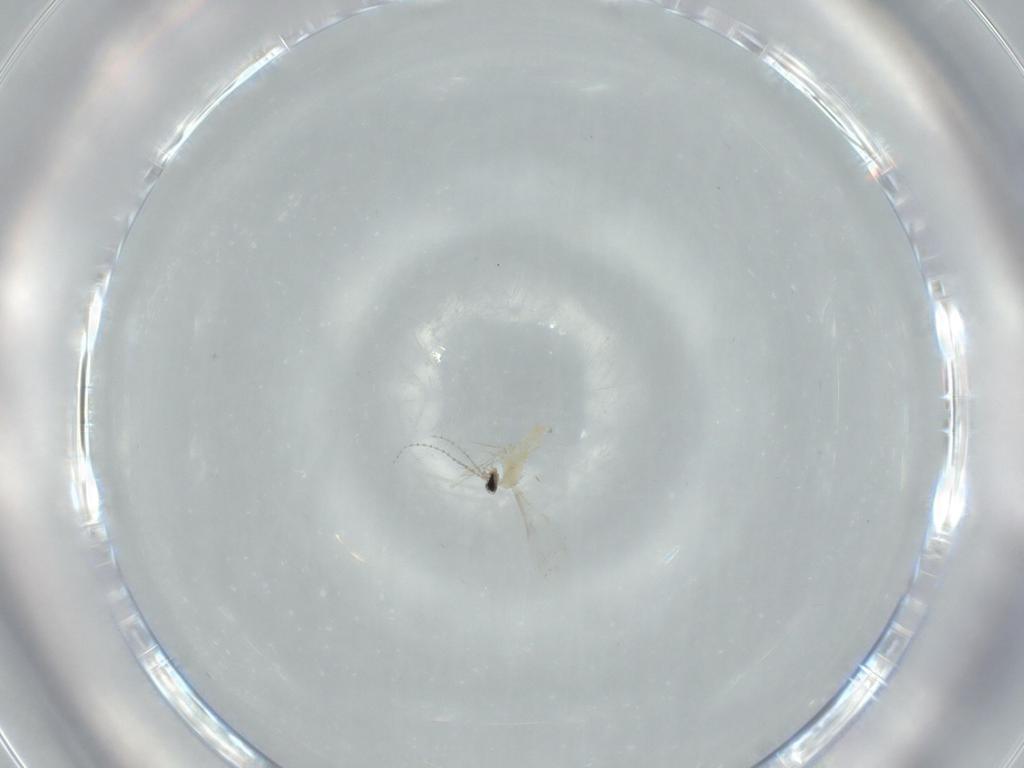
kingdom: Animalia
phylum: Arthropoda
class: Insecta
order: Diptera
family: Cecidomyiidae
